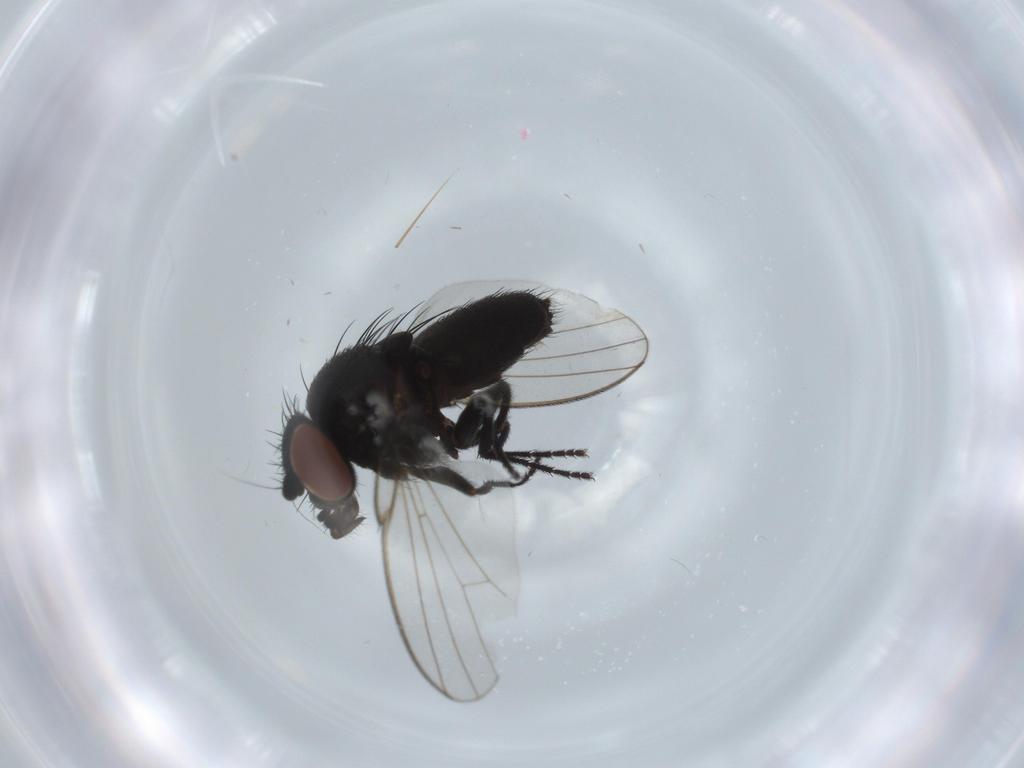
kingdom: Animalia
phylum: Arthropoda
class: Insecta
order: Diptera
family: Milichiidae
